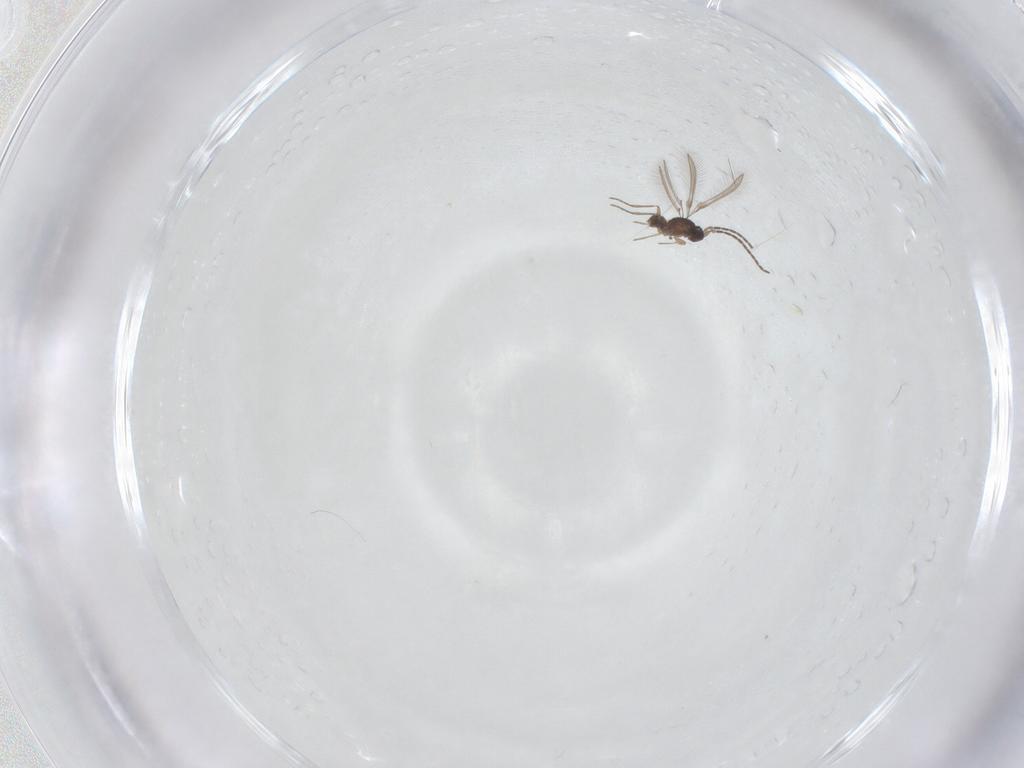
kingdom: Animalia
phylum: Arthropoda
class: Insecta
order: Hymenoptera
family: Mymaridae
